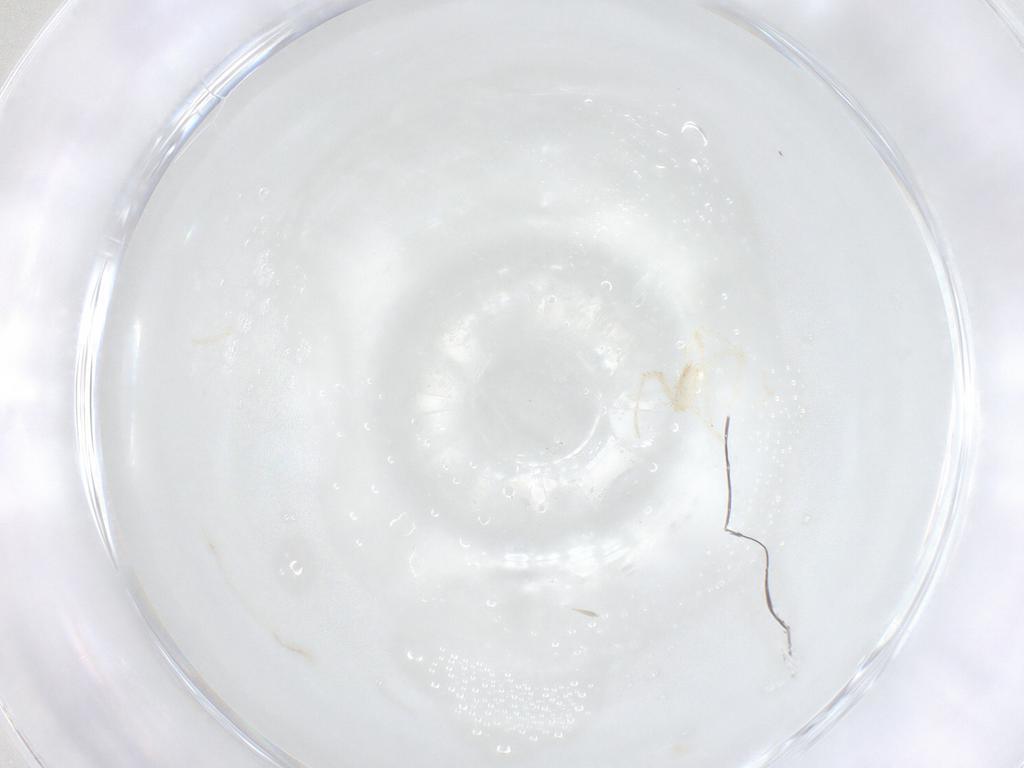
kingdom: Animalia
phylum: Arthropoda
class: Arachnida
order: Trombidiformes
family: Erythraeidae
